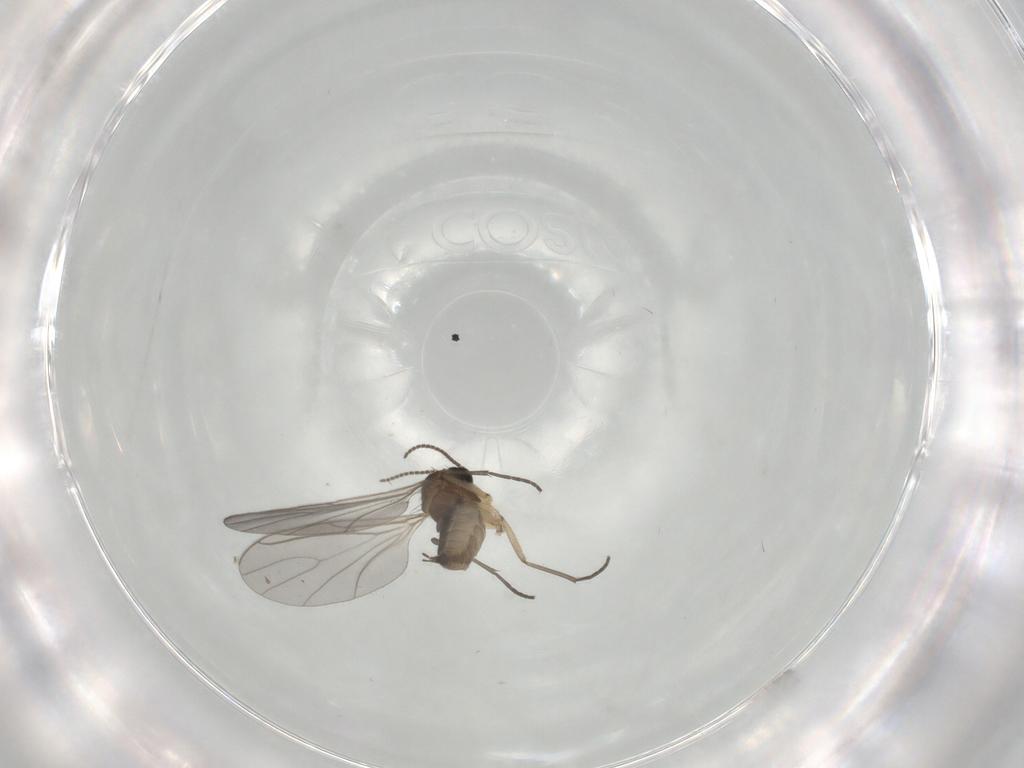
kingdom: Animalia
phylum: Arthropoda
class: Insecta
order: Diptera
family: Sciaridae
